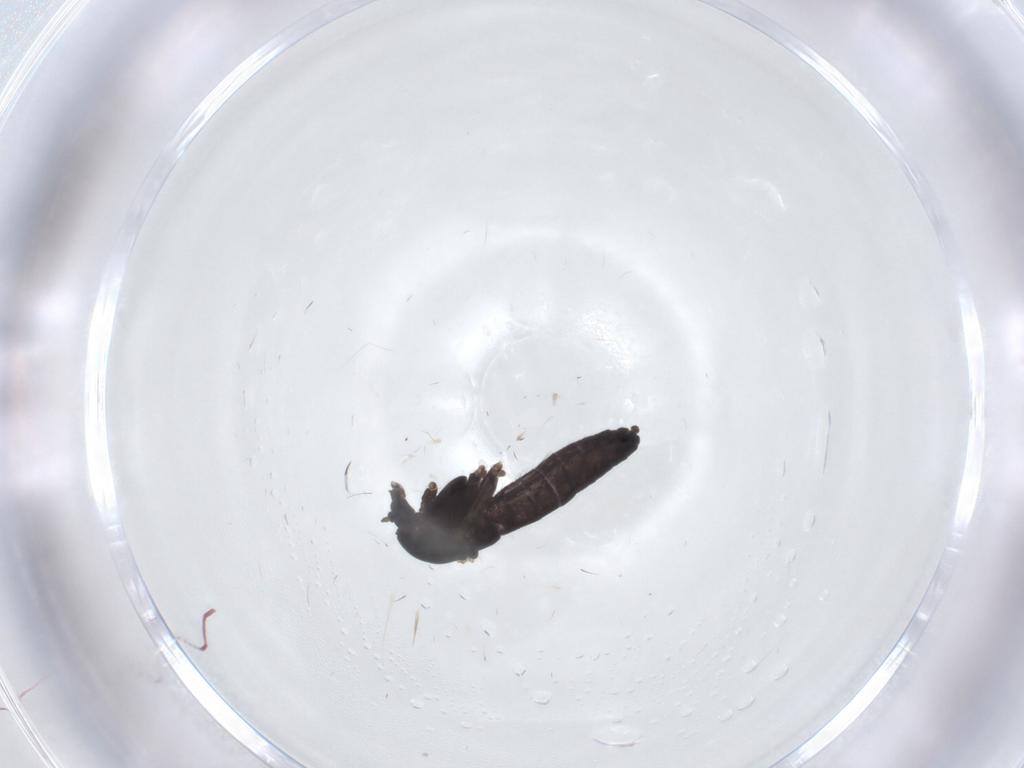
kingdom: Animalia
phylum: Arthropoda
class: Insecta
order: Diptera
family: Chironomidae
